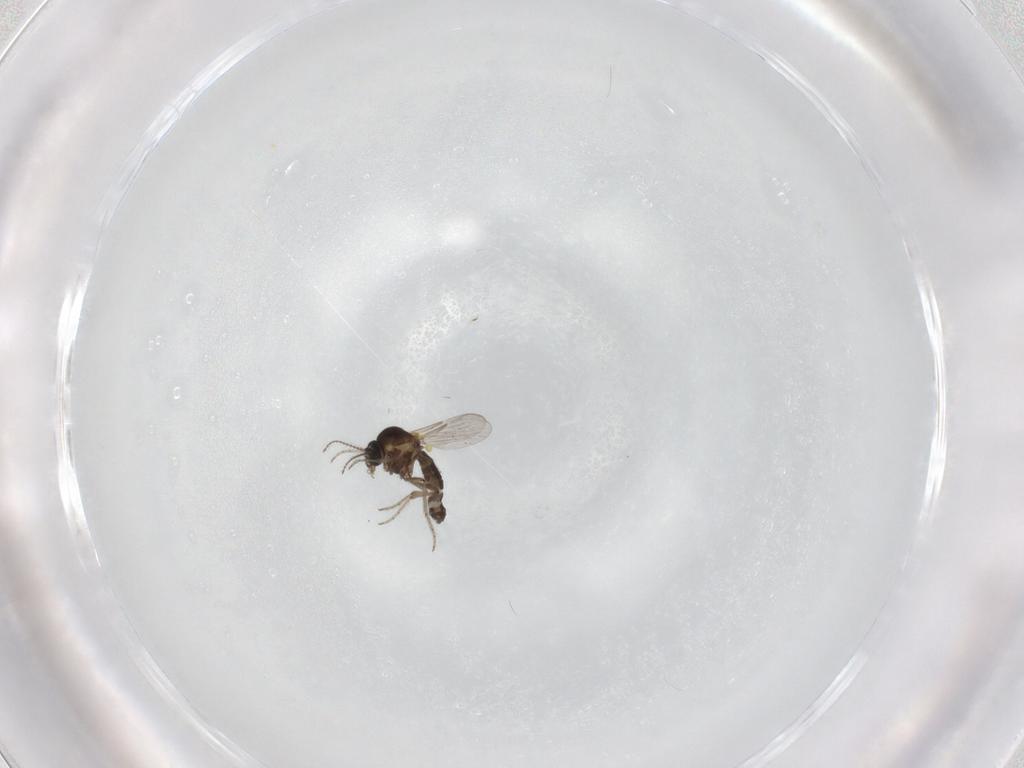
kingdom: Animalia
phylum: Arthropoda
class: Insecta
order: Diptera
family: Ceratopogonidae
